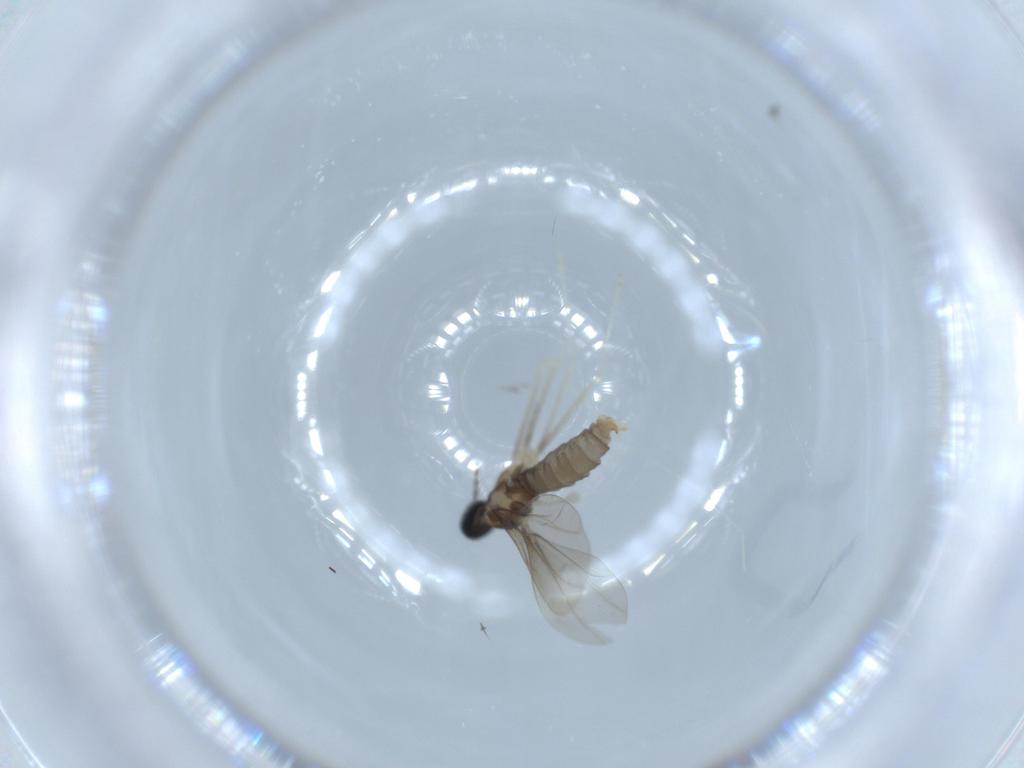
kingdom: Animalia
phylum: Arthropoda
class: Insecta
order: Diptera
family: Cecidomyiidae
